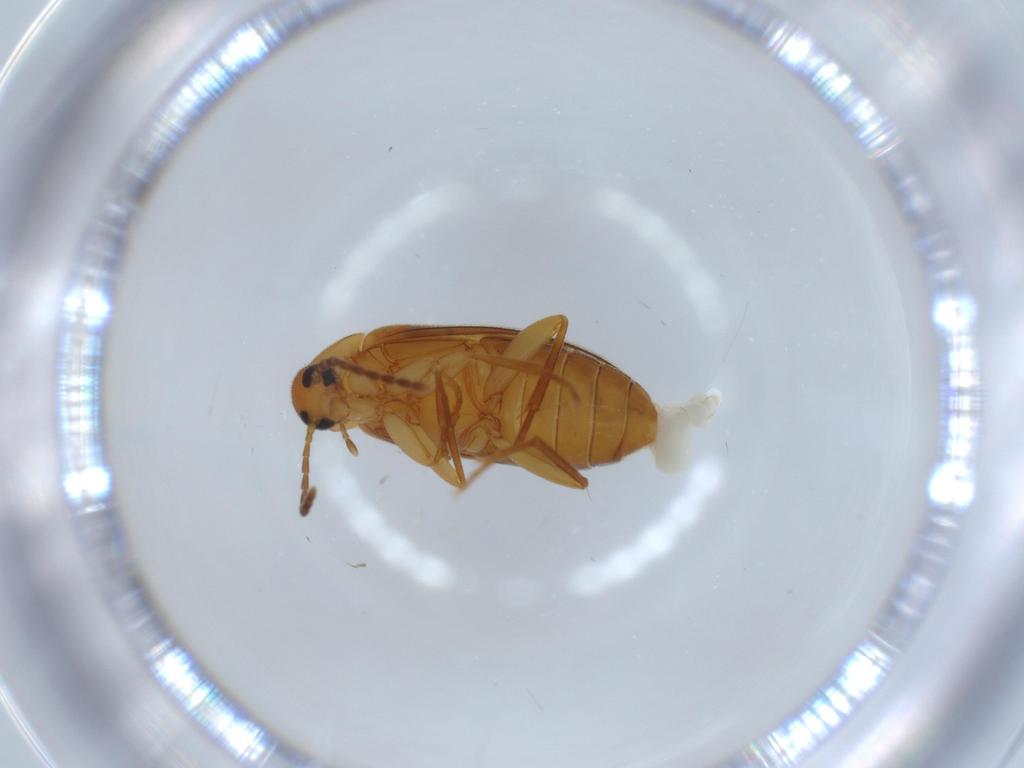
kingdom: Animalia
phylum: Arthropoda
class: Insecta
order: Coleoptera
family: Scraptiidae
